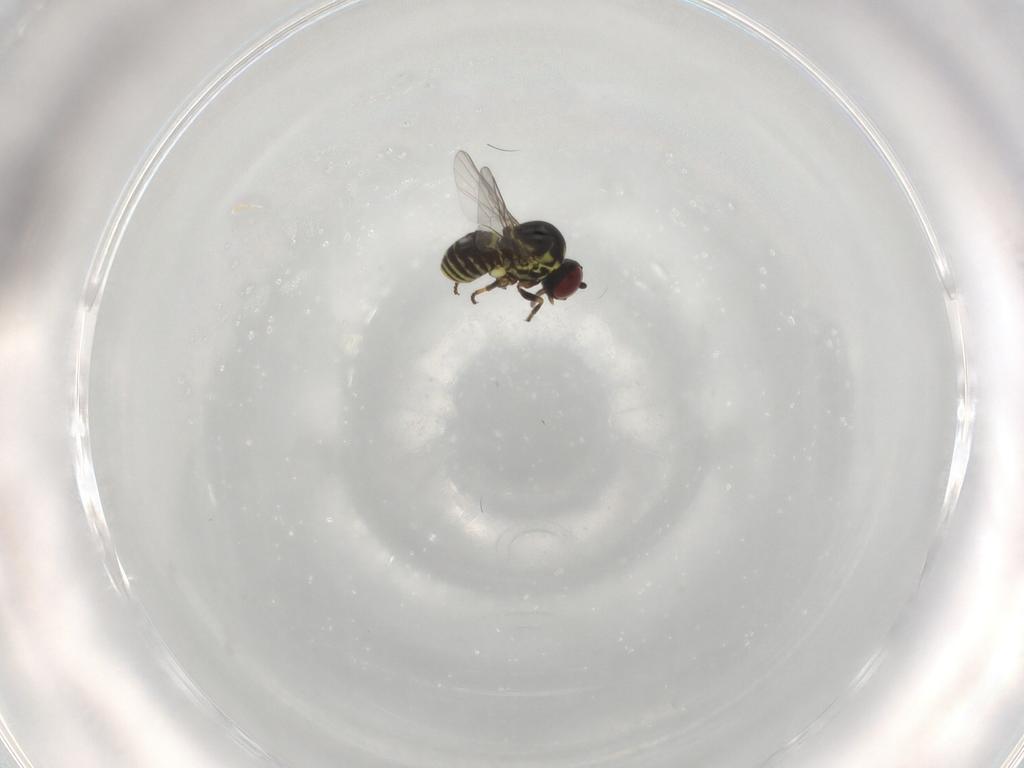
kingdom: Animalia
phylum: Arthropoda
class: Insecta
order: Diptera
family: Bombyliidae
